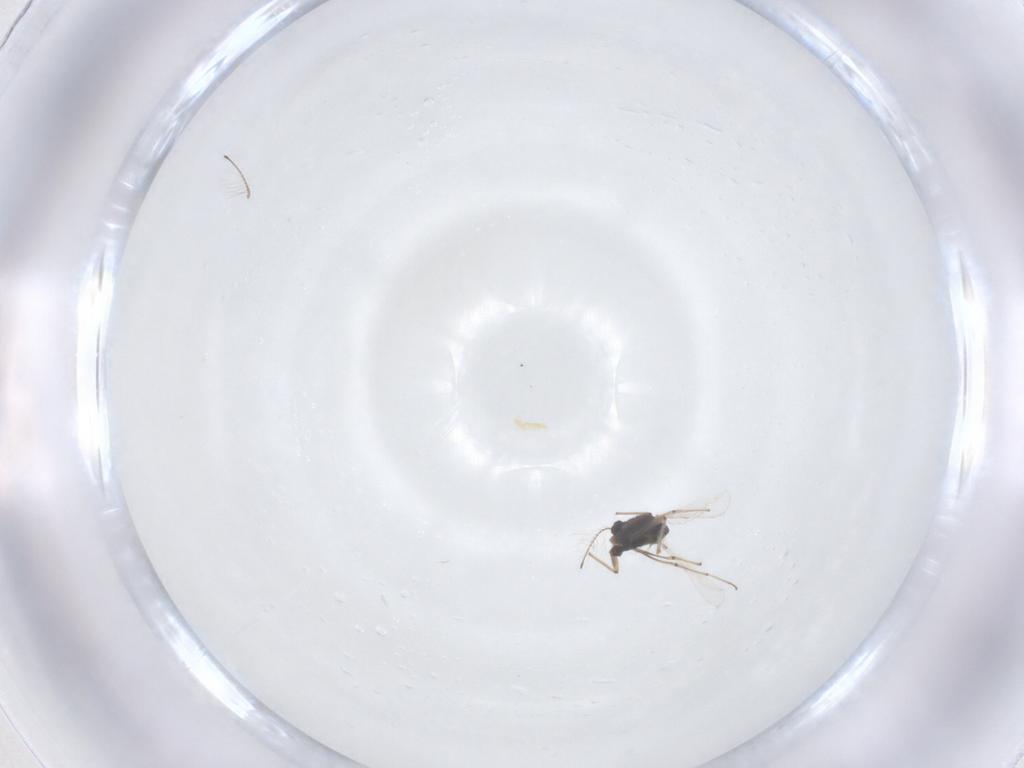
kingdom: Animalia
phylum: Arthropoda
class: Insecta
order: Diptera
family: Chironomidae
